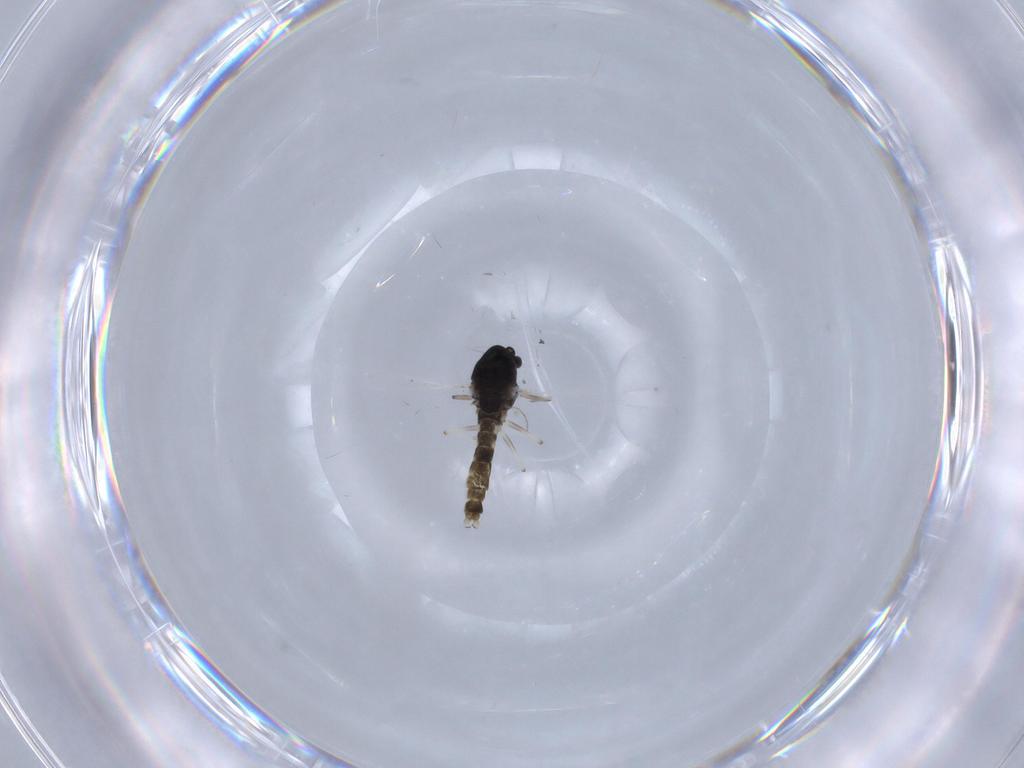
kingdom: Animalia
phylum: Arthropoda
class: Insecta
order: Diptera
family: Chironomidae
